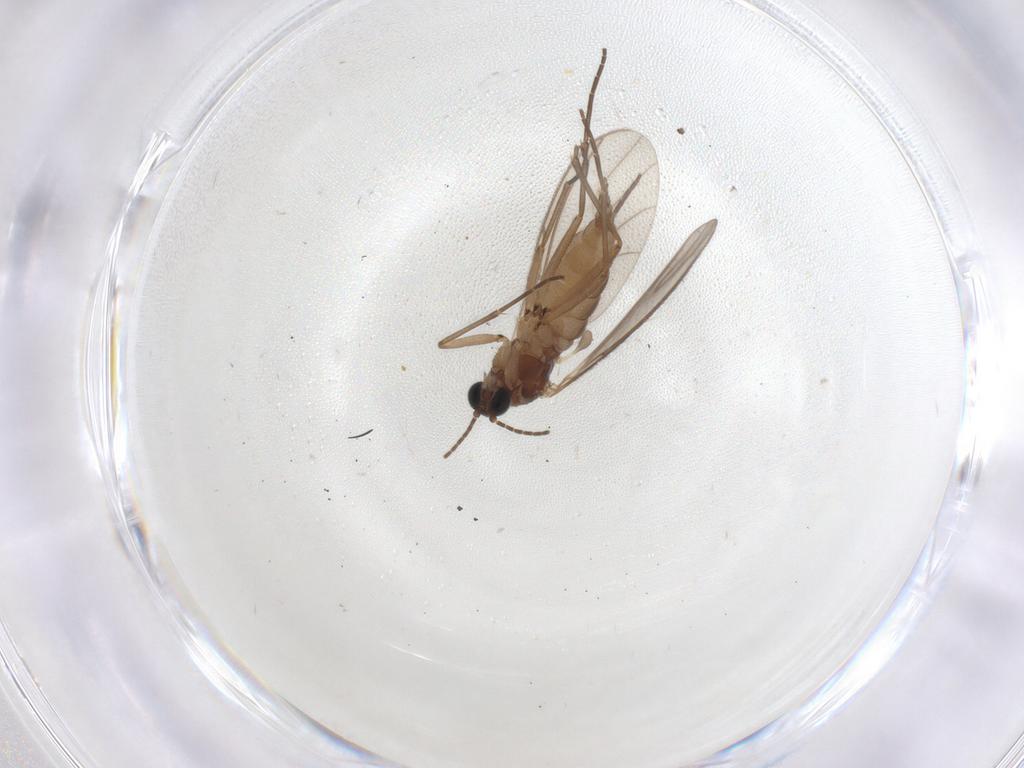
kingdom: Animalia
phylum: Arthropoda
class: Insecta
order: Diptera
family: Sciaridae
